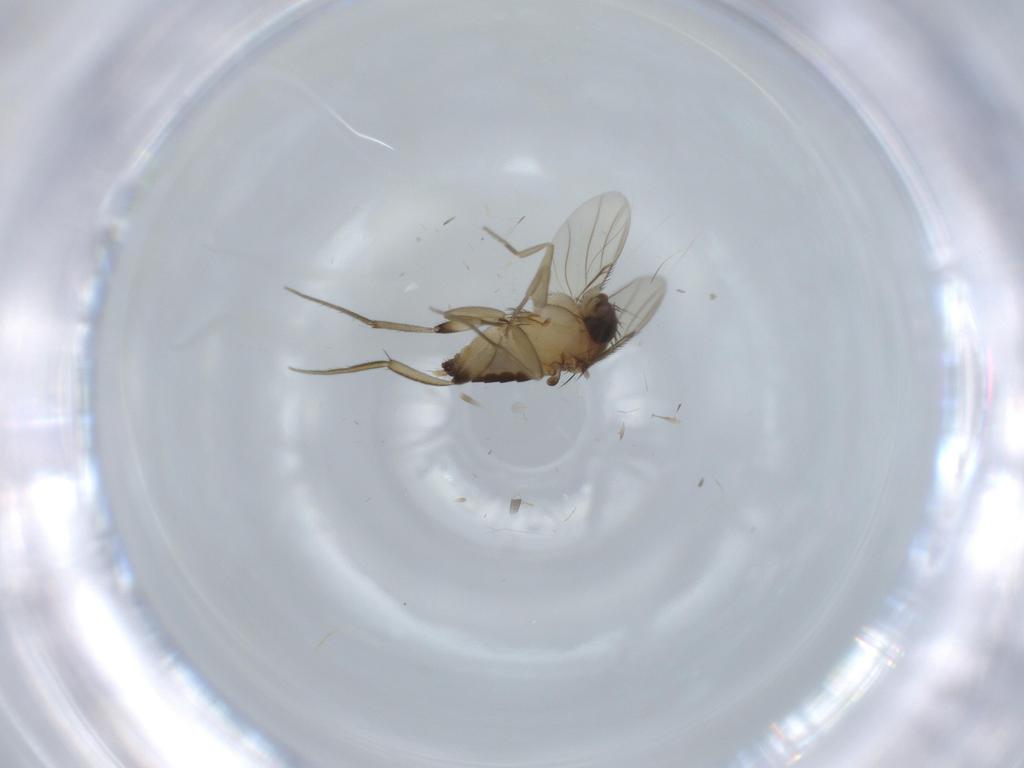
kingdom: Animalia
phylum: Arthropoda
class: Insecta
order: Diptera
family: Phoridae
